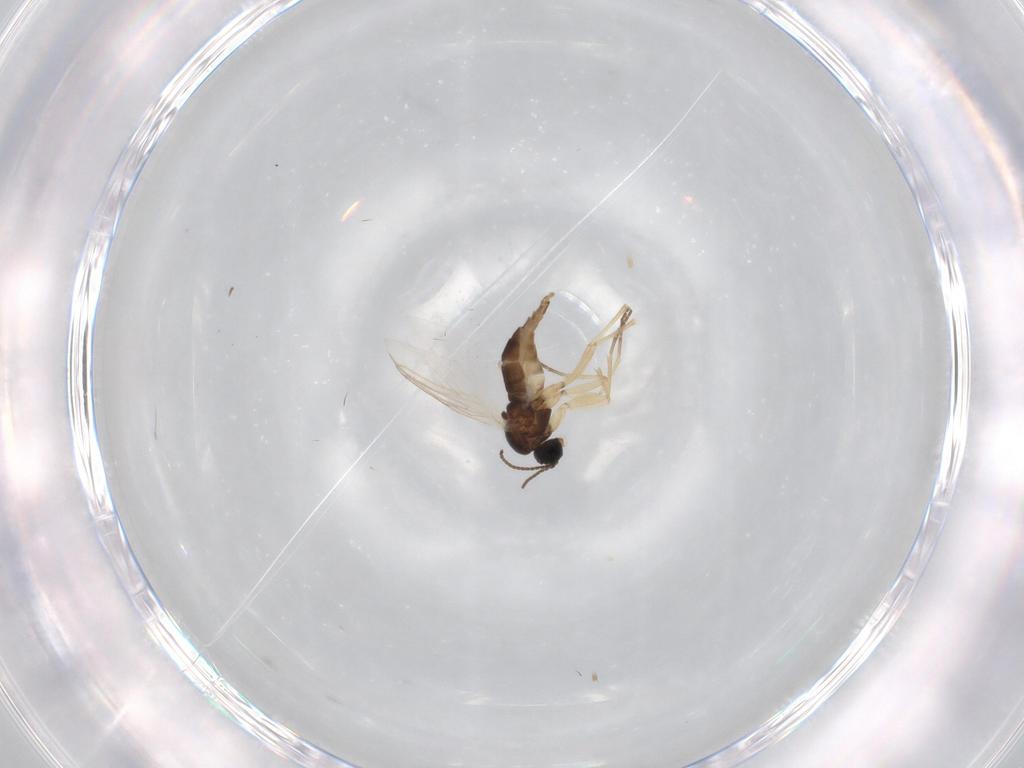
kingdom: Animalia
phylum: Arthropoda
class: Insecta
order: Diptera
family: Sciaridae
